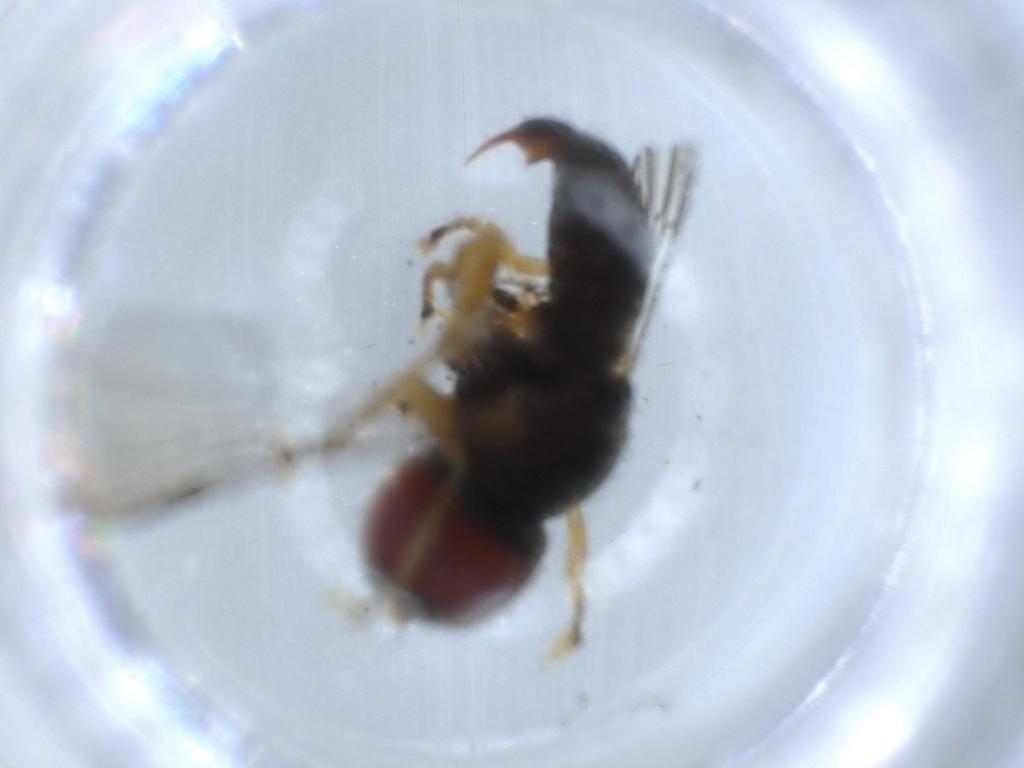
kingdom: Animalia
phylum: Arthropoda
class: Insecta
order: Diptera
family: Pipunculidae
